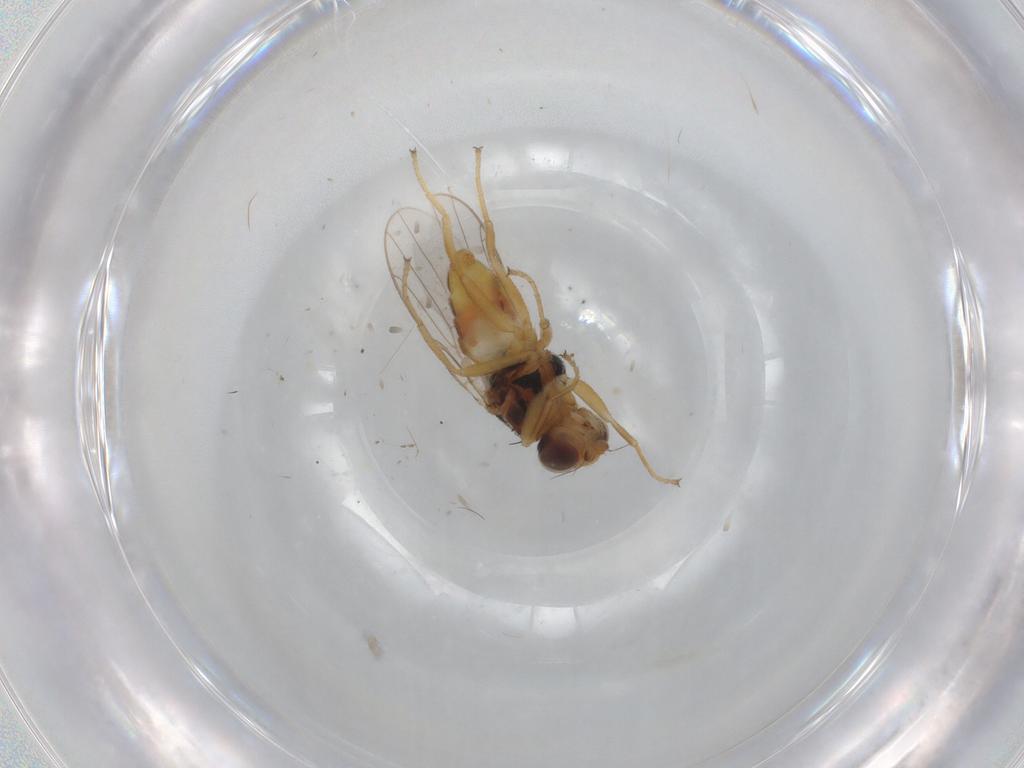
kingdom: Animalia
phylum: Arthropoda
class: Insecta
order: Diptera
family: Chloropidae
